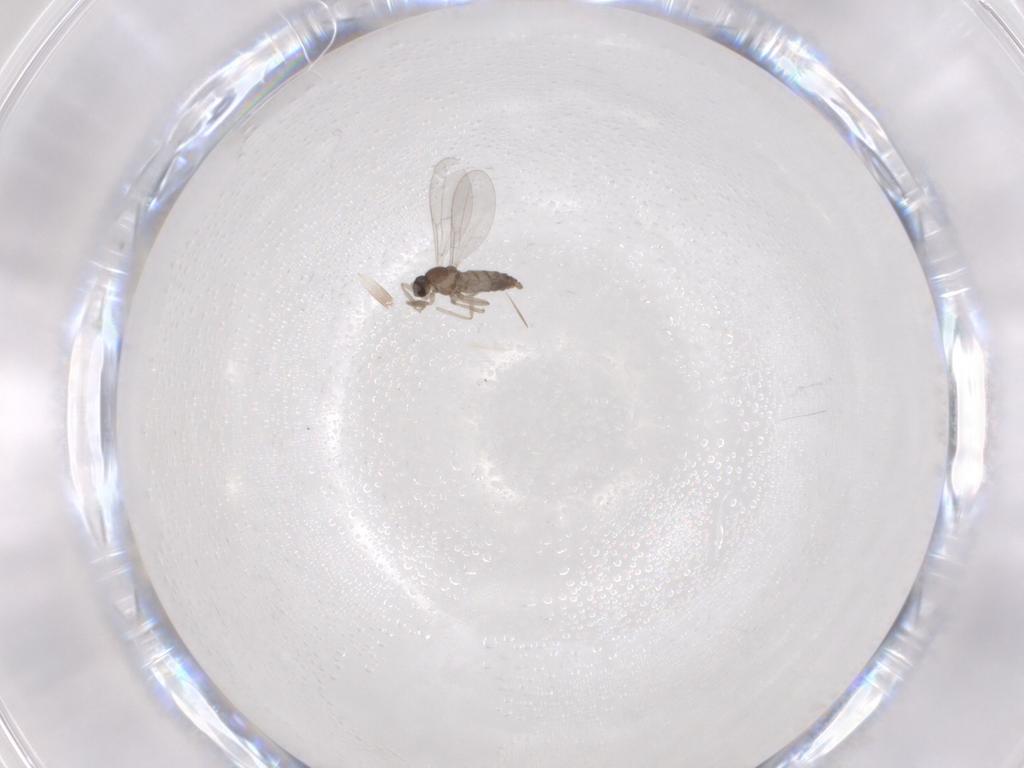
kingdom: Animalia
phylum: Arthropoda
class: Insecta
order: Diptera
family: Cecidomyiidae
